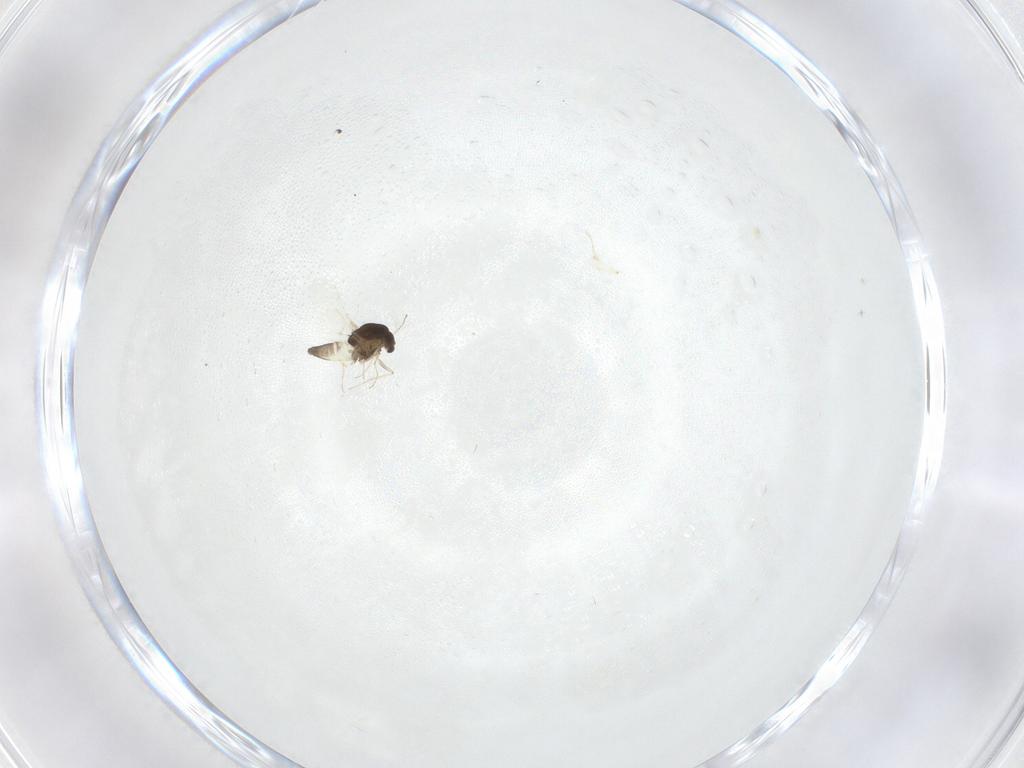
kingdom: Animalia
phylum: Arthropoda
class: Insecta
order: Diptera
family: Chironomidae
